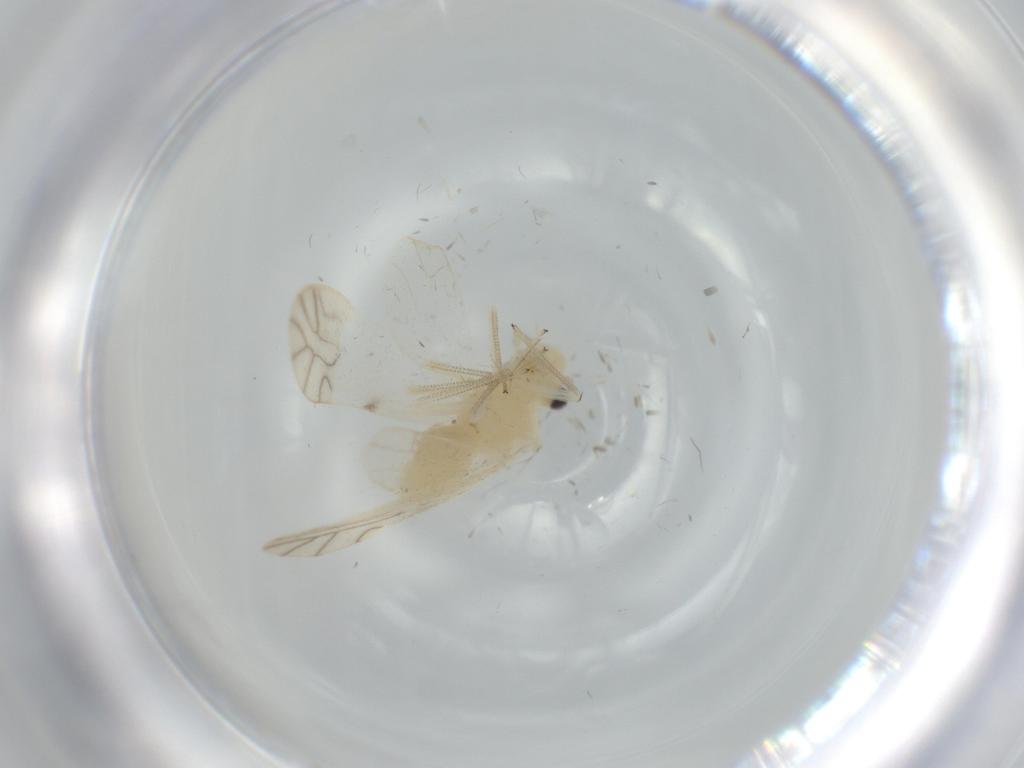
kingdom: Animalia
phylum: Arthropoda
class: Insecta
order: Psocodea
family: Caeciliusidae
